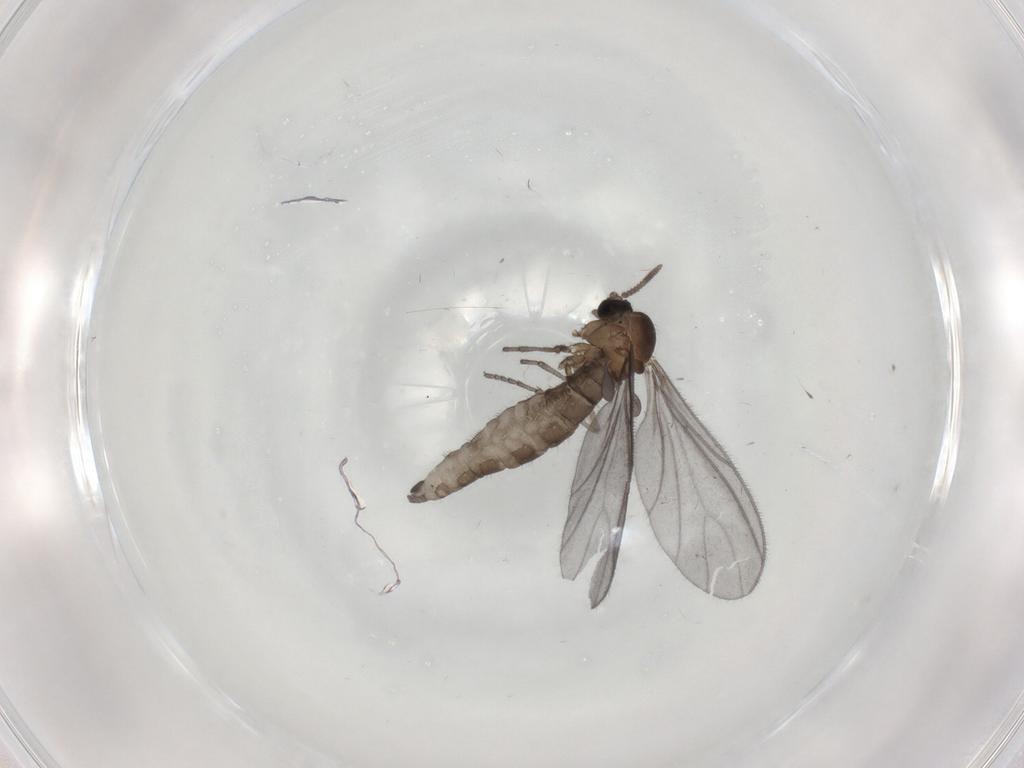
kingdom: Animalia
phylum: Arthropoda
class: Insecta
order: Diptera
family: Sciaridae
